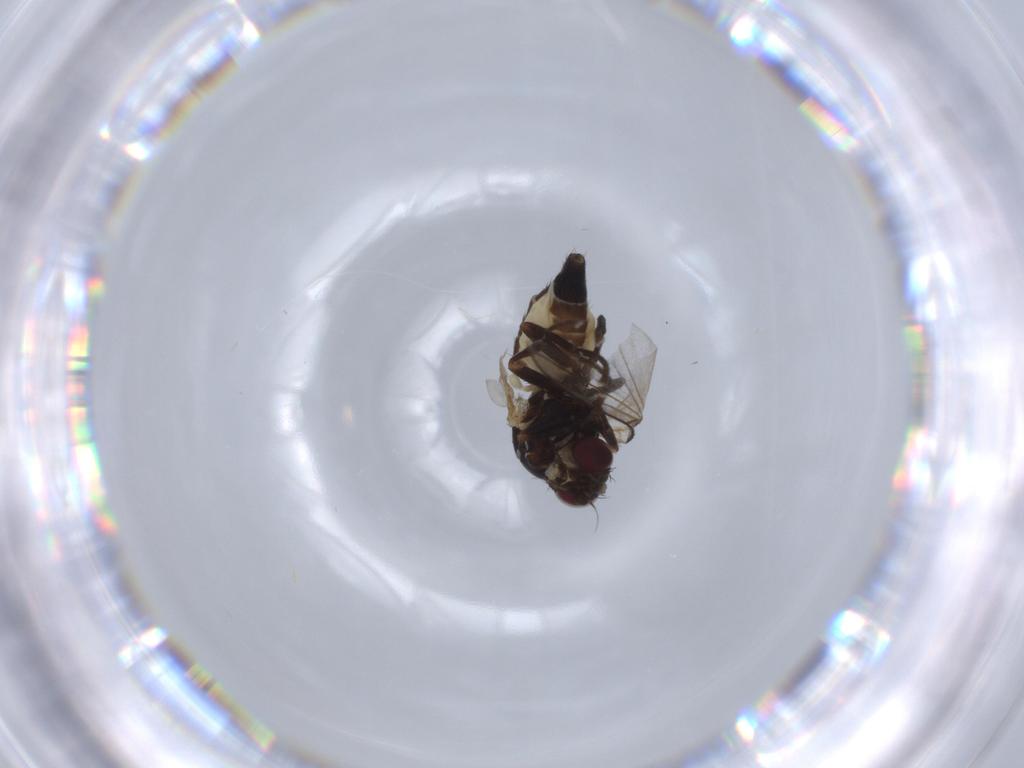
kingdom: Animalia
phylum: Arthropoda
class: Insecta
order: Diptera
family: Agromyzidae
